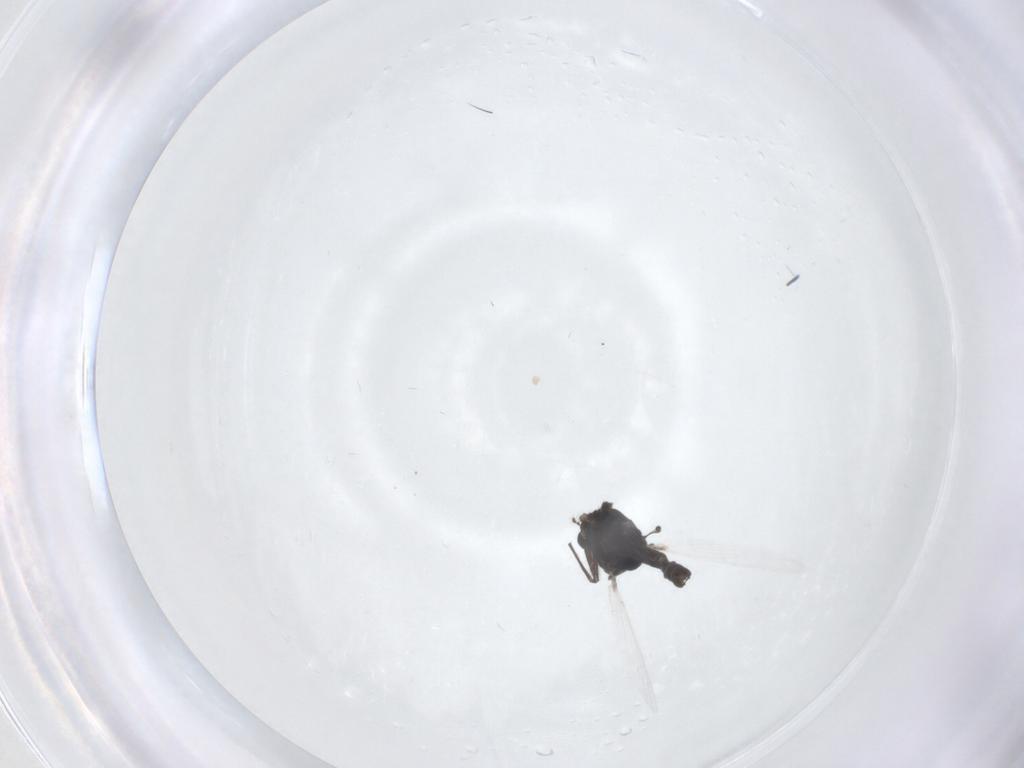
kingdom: Animalia
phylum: Arthropoda
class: Insecta
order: Diptera
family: Chironomidae
